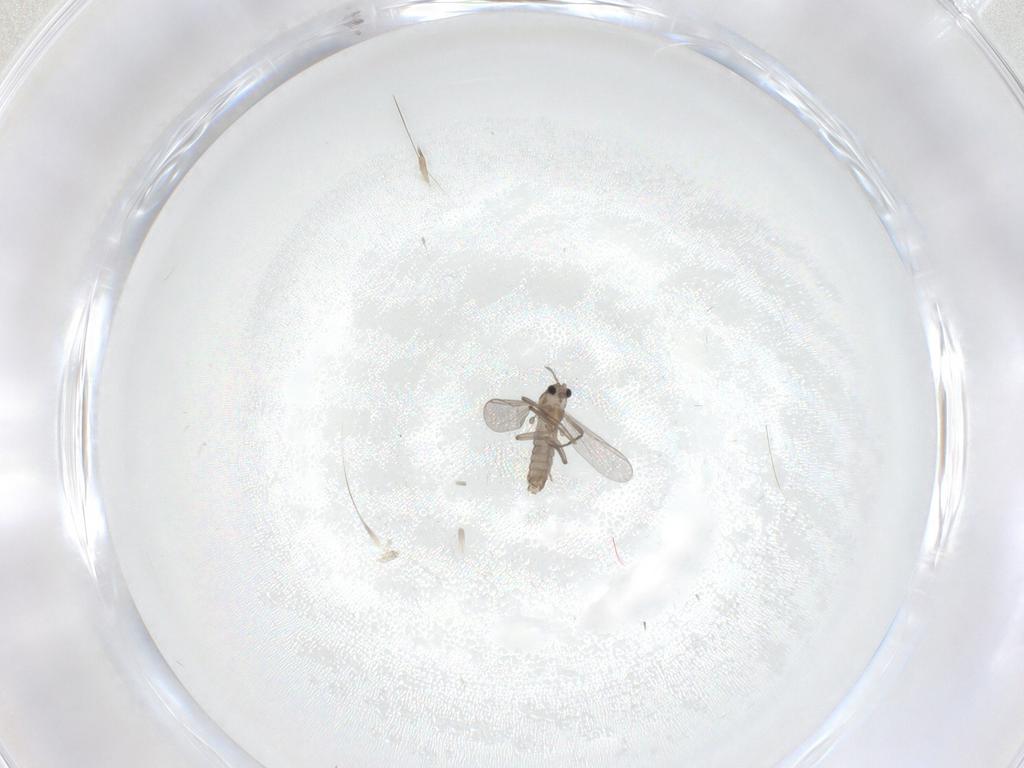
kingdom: Animalia
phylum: Arthropoda
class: Insecta
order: Diptera
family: Chironomidae
